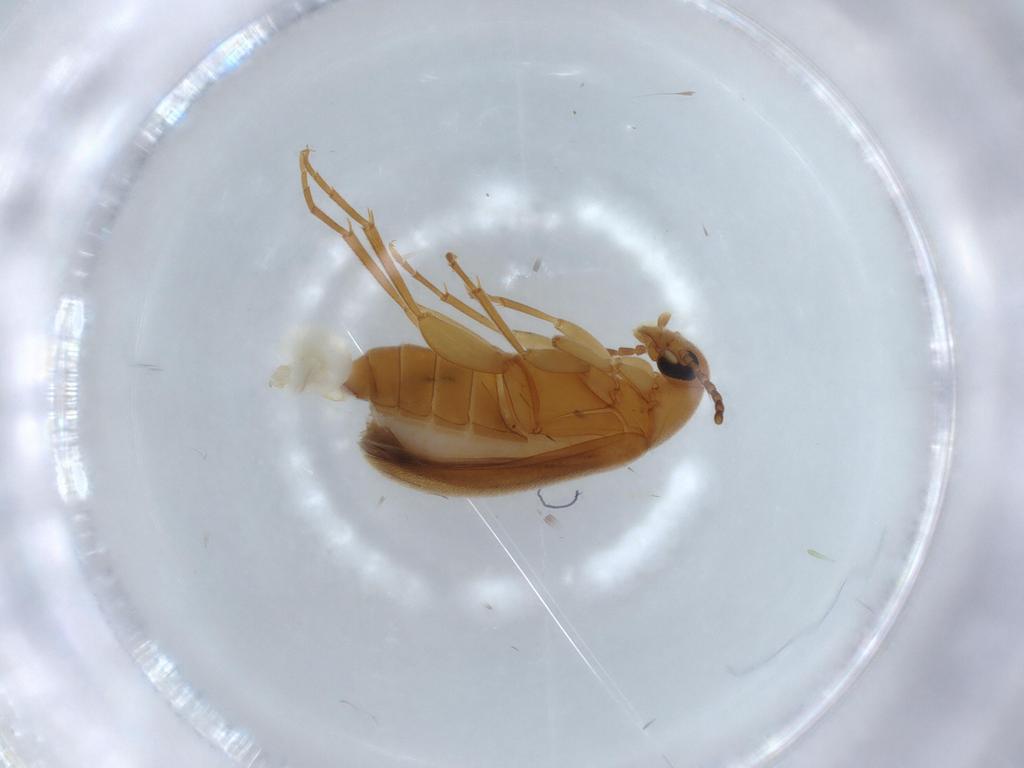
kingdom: Animalia
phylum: Arthropoda
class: Insecta
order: Coleoptera
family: Scraptiidae
